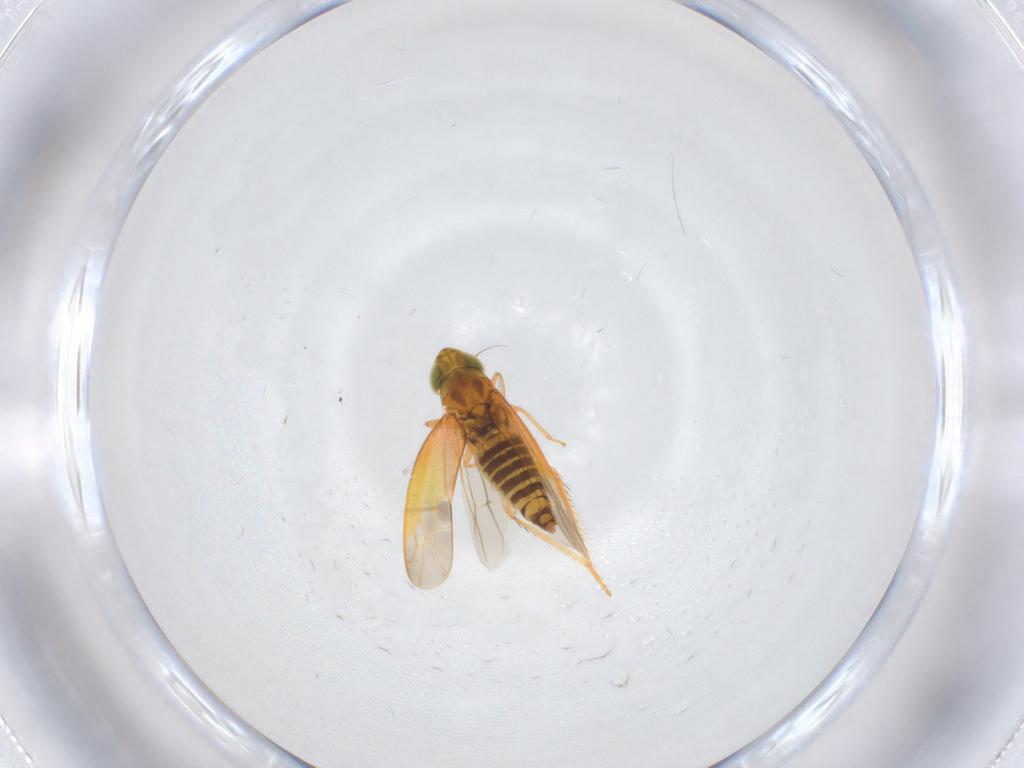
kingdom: Animalia
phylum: Arthropoda
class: Insecta
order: Hemiptera
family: Cicadellidae
